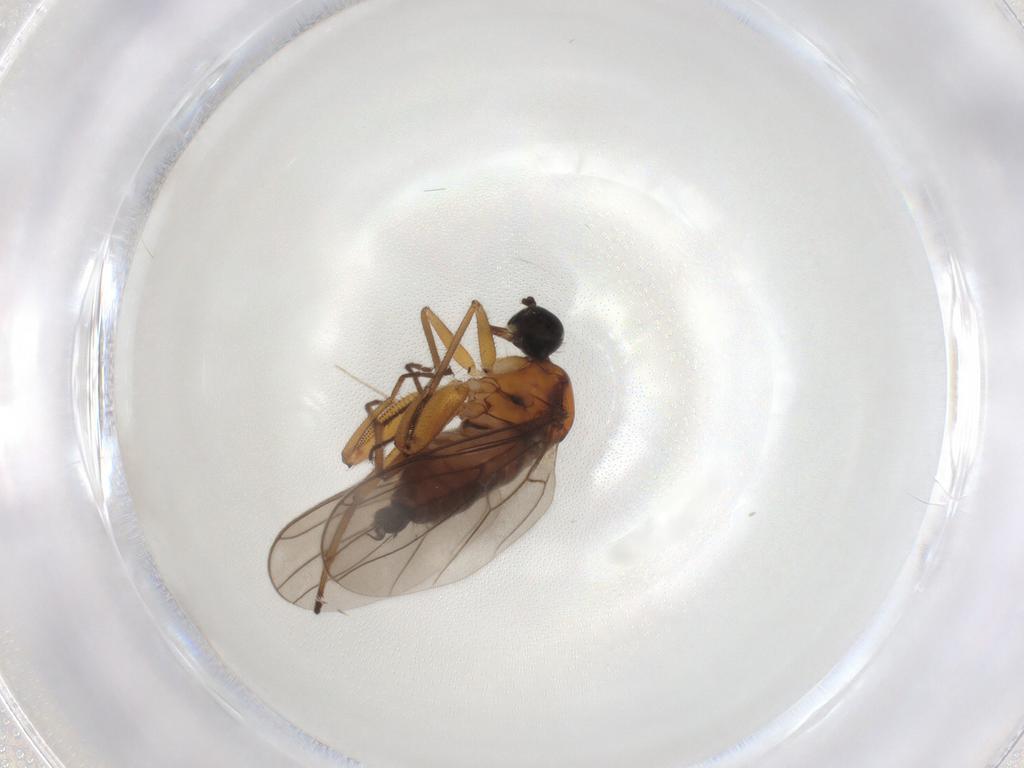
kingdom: Animalia
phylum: Arthropoda
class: Insecta
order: Diptera
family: Hybotidae
